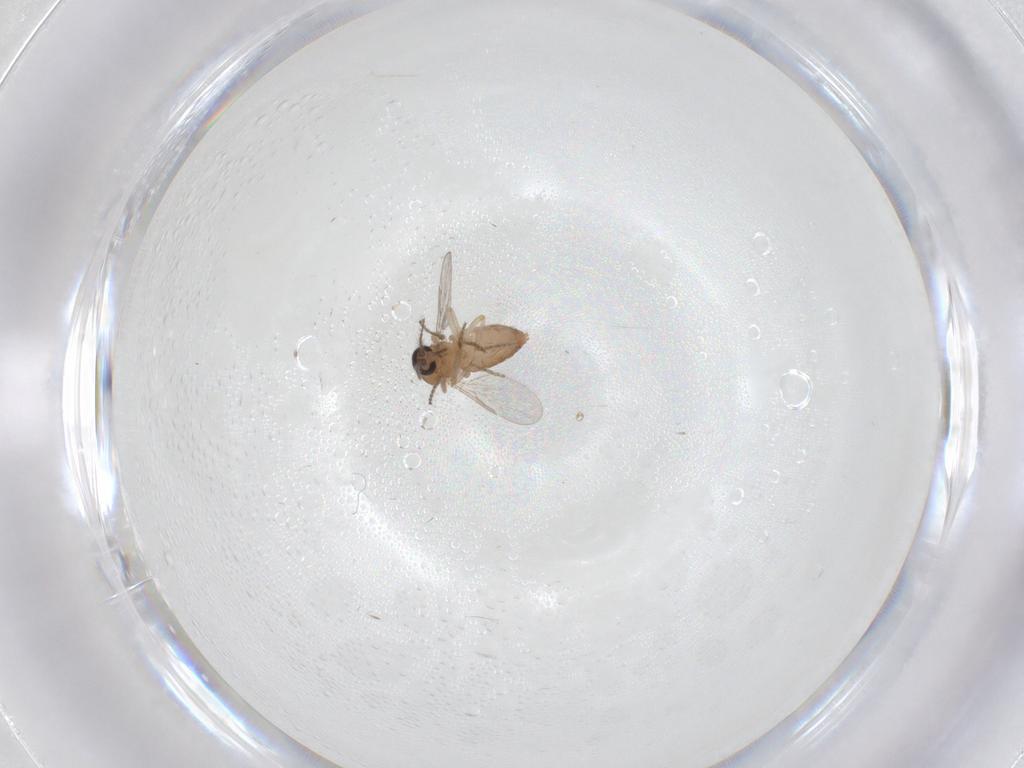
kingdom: Animalia
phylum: Arthropoda
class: Insecta
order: Diptera
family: Ceratopogonidae
